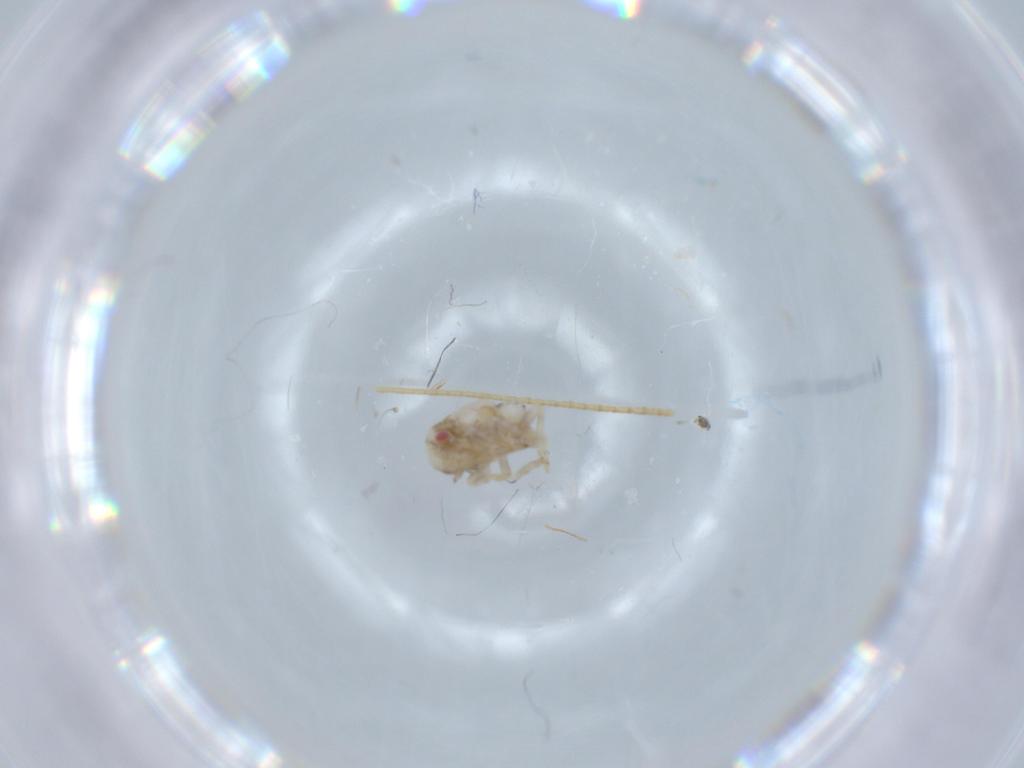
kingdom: Animalia
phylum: Arthropoda
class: Insecta
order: Hemiptera
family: Acanaloniidae
